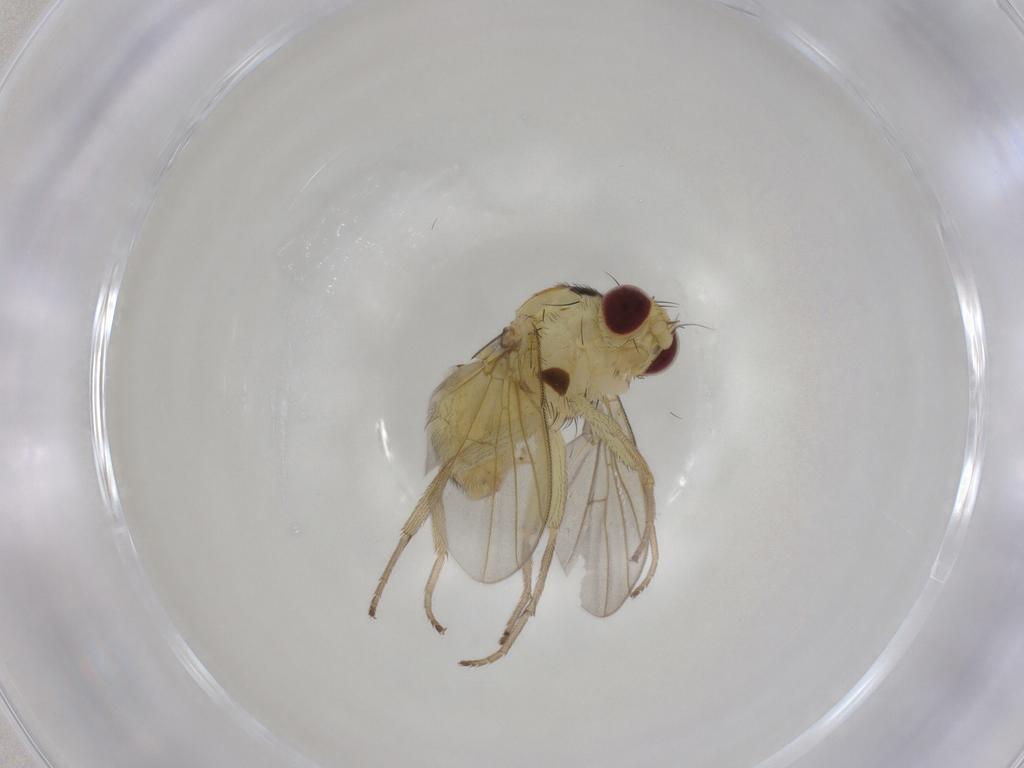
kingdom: Animalia
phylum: Arthropoda
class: Insecta
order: Diptera
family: Agromyzidae
